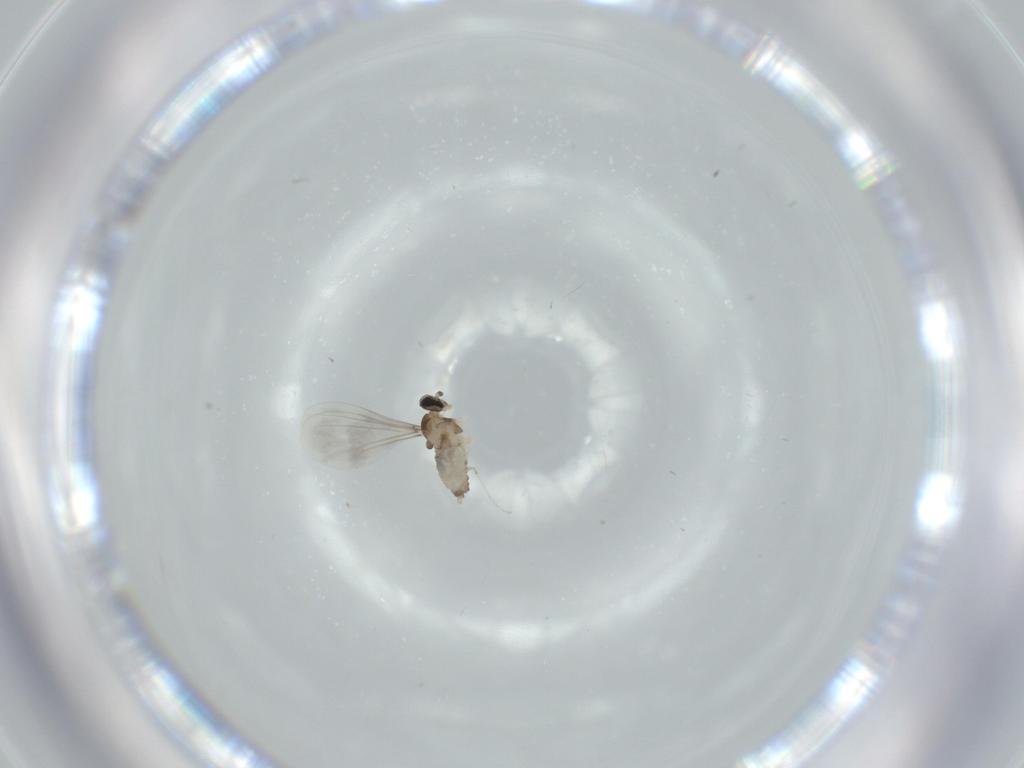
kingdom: Animalia
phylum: Arthropoda
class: Insecta
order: Diptera
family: Cecidomyiidae
